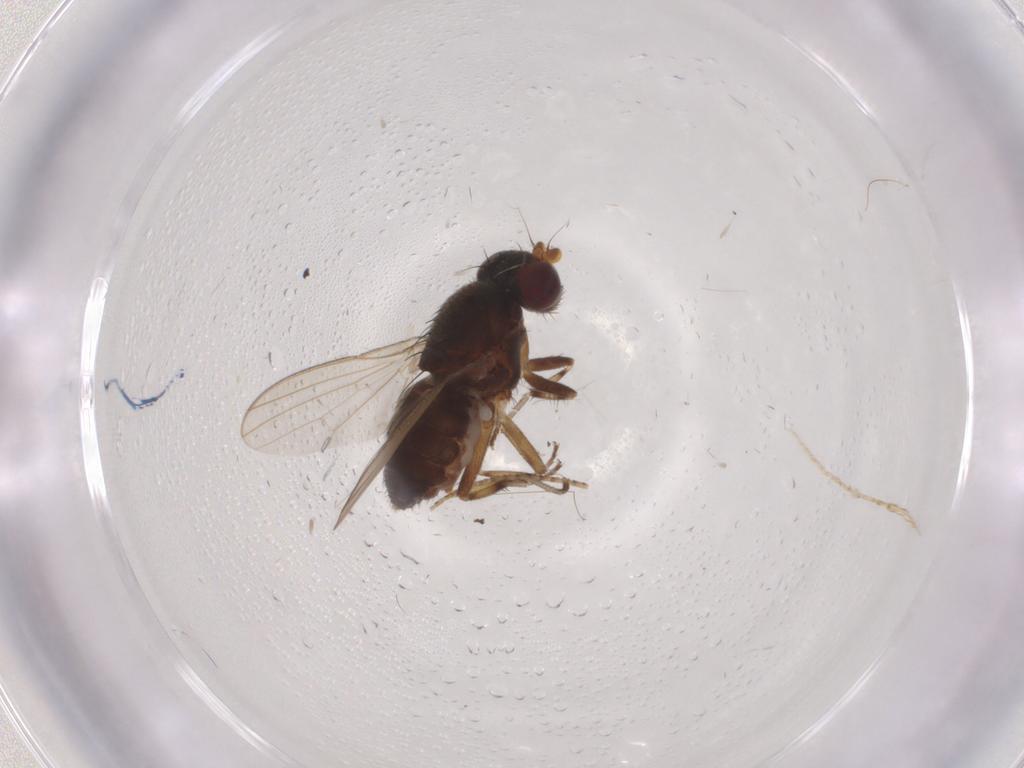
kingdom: Animalia
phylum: Arthropoda
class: Insecta
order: Diptera
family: Heleomyzidae
